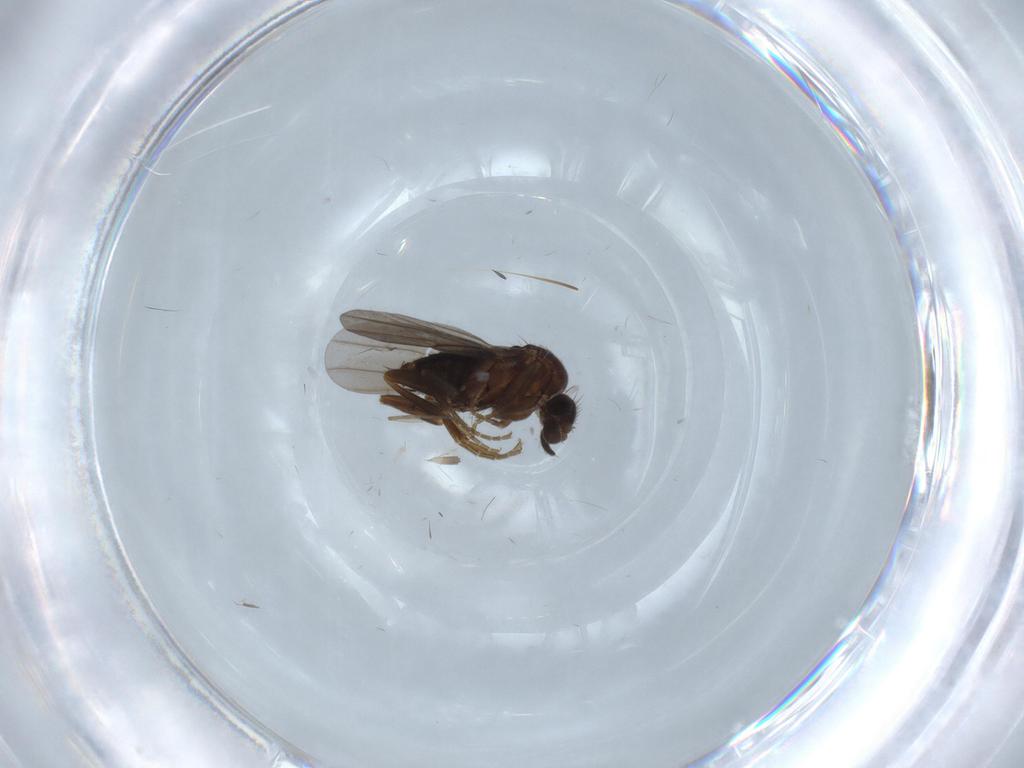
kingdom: Animalia
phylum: Arthropoda
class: Insecta
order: Diptera
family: Phoridae
